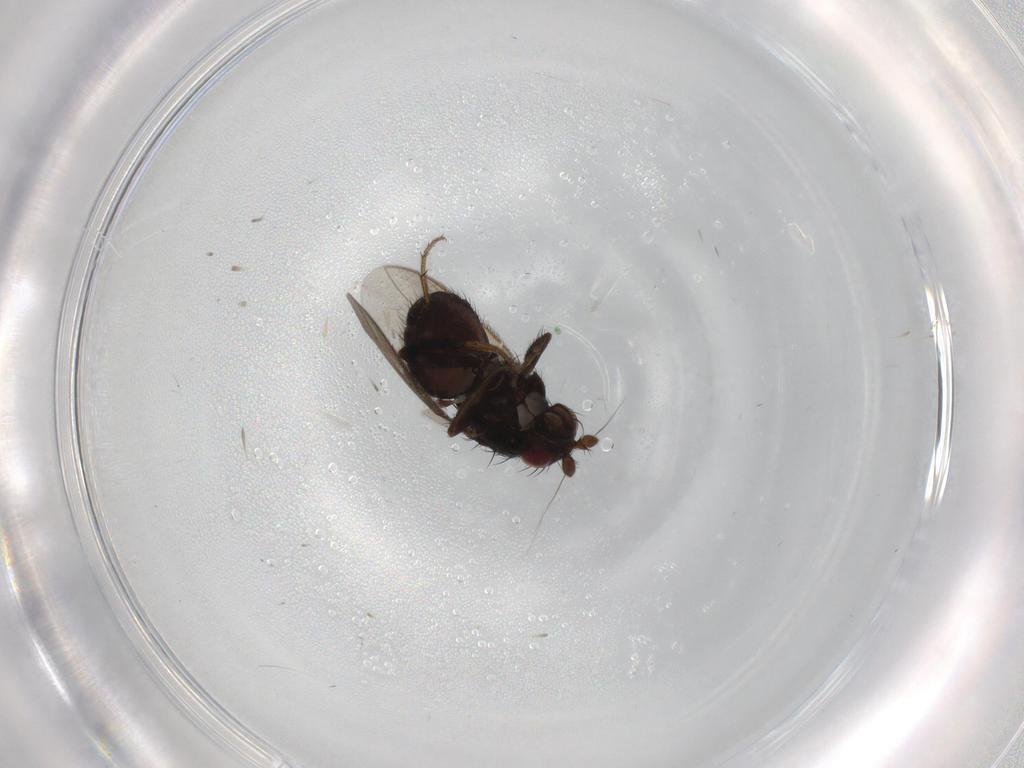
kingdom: Animalia
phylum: Arthropoda
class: Insecta
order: Diptera
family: Sphaeroceridae
